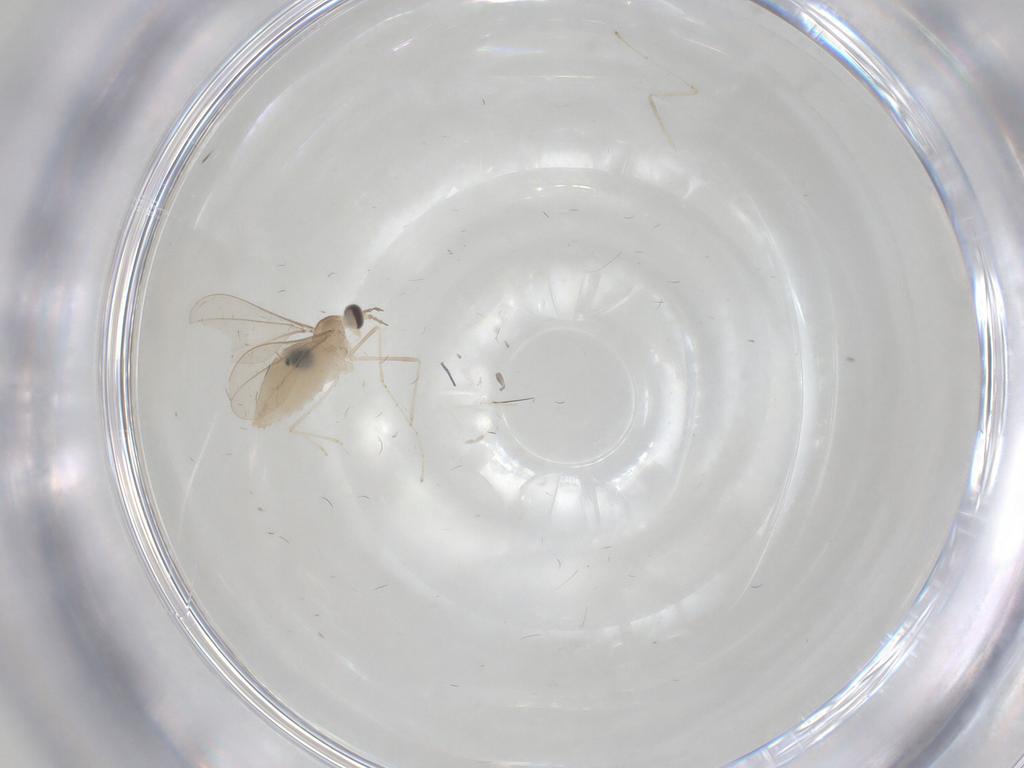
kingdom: Animalia
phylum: Arthropoda
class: Insecta
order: Diptera
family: Cecidomyiidae
